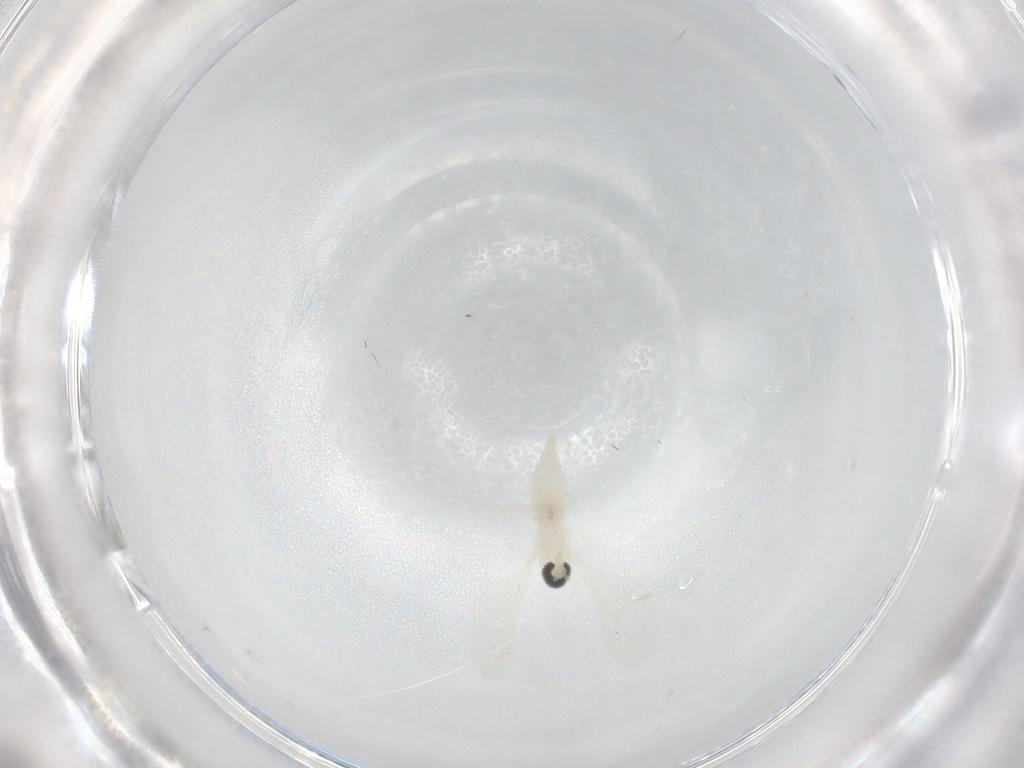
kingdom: Animalia
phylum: Arthropoda
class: Insecta
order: Diptera
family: Cecidomyiidae
